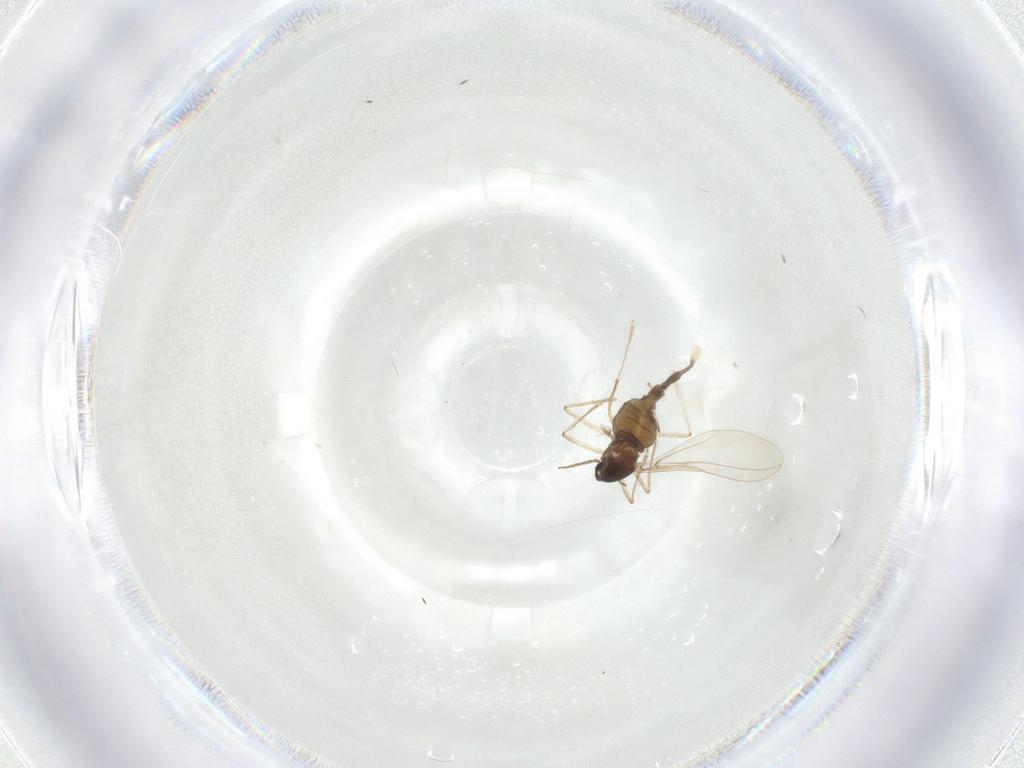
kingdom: Animalia
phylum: Arthropoda
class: Insecta
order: Diptera
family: Cecidomyiidae
